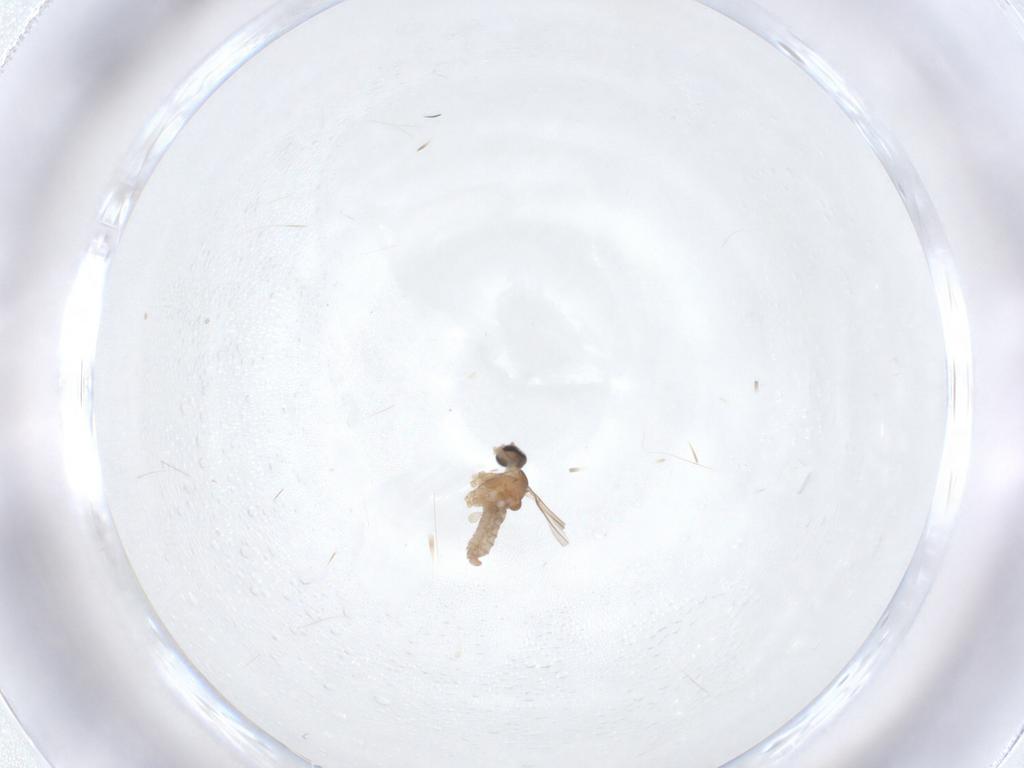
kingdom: Animalia
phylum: Arthropoda
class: Insecta
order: Diptera
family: Cecidomyiidae
